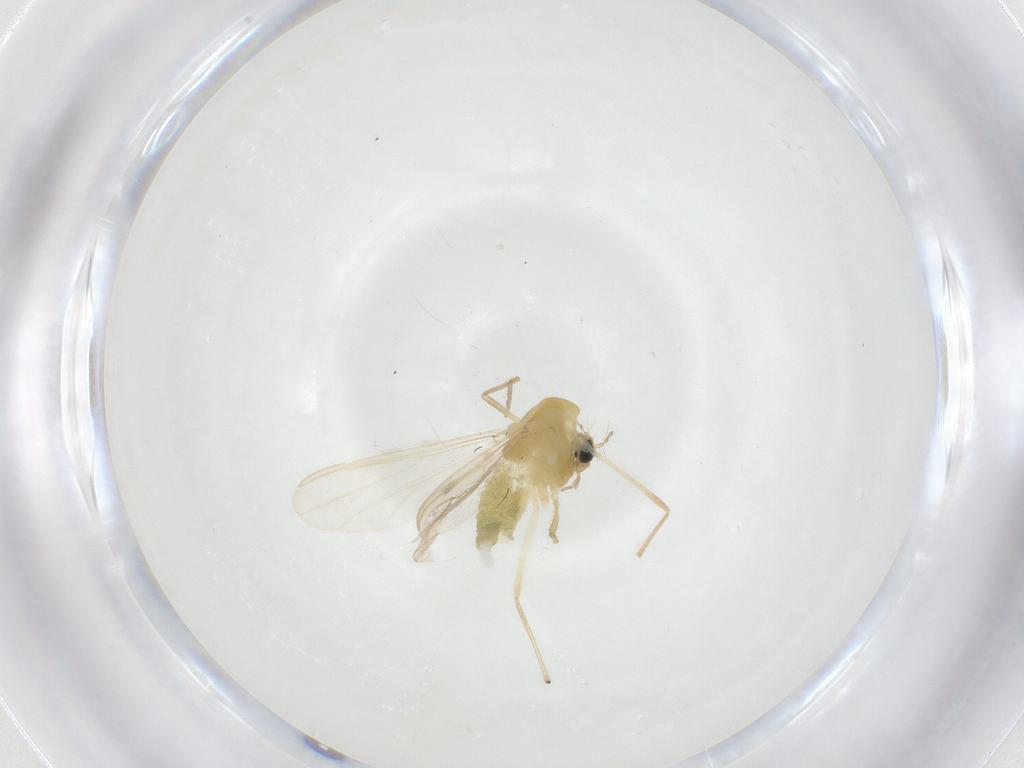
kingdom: Animalia
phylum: Arthropoda
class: Insecta
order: Diptera
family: Chironomidae
